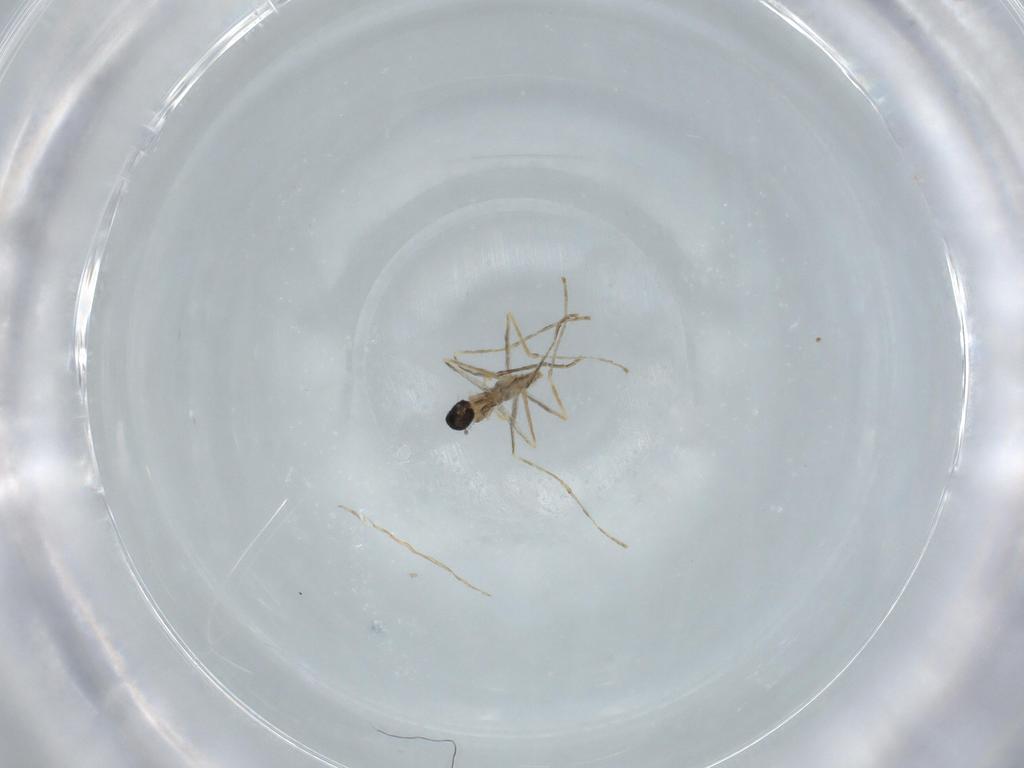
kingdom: Animalia
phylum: Arthropoda
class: Insecta
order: Diptera
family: Cecidomyiidae
